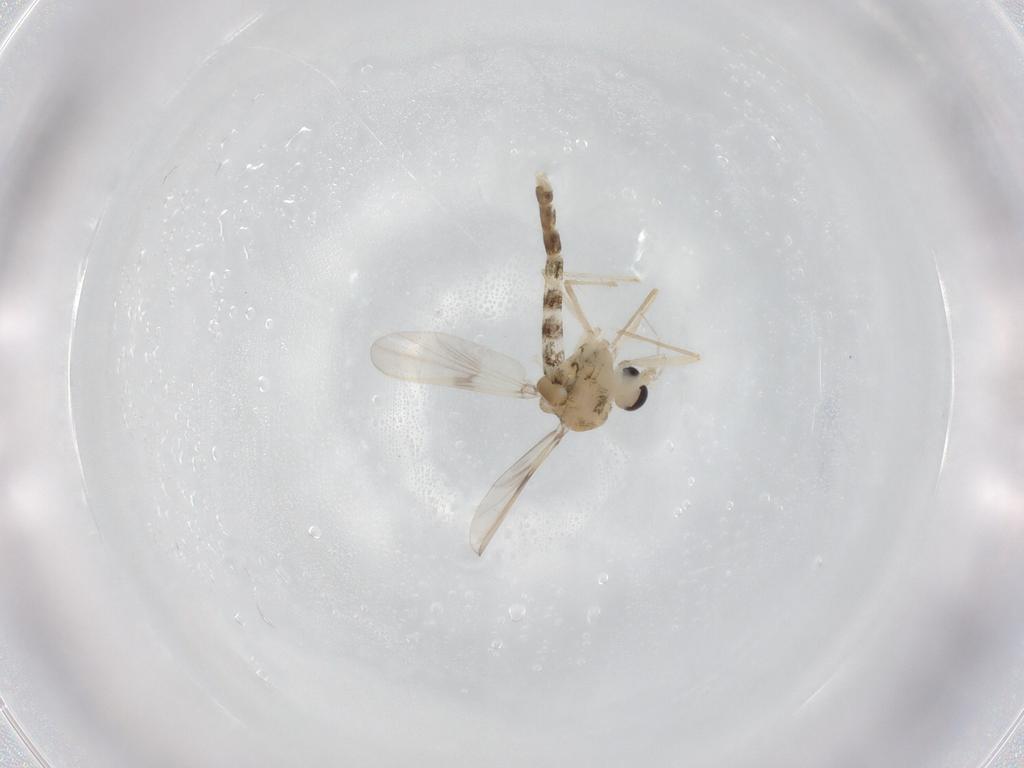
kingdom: Animalia
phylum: Arthropoda
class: Insecta
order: Diptera
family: Chironomidae
